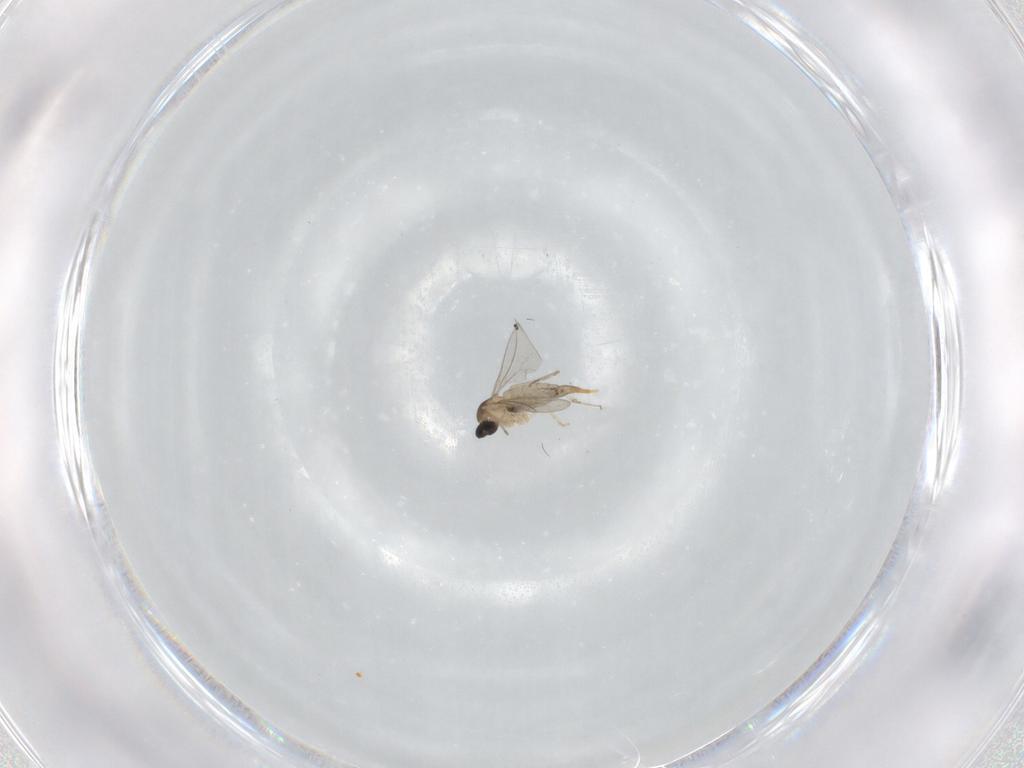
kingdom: Animalia
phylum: Arthropoda
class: Insecta
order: Diptera
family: Cecidomyiidae
